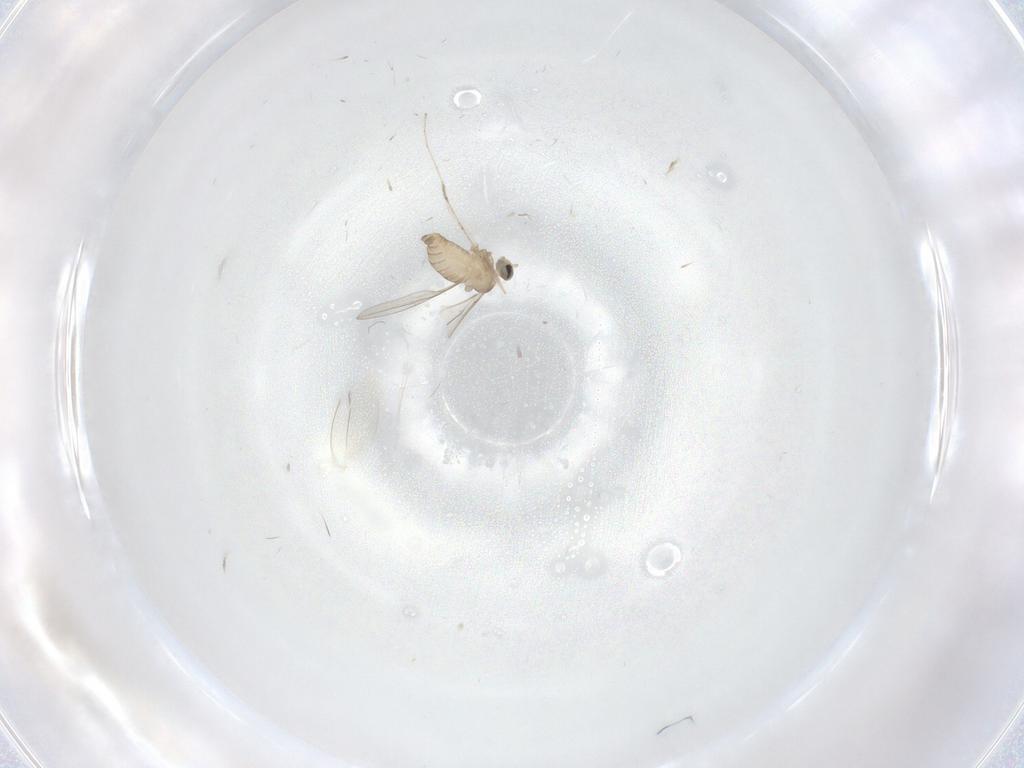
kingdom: Animalia
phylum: Arthropoda
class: Insecta
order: Diptera
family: Cecidomyiidae
